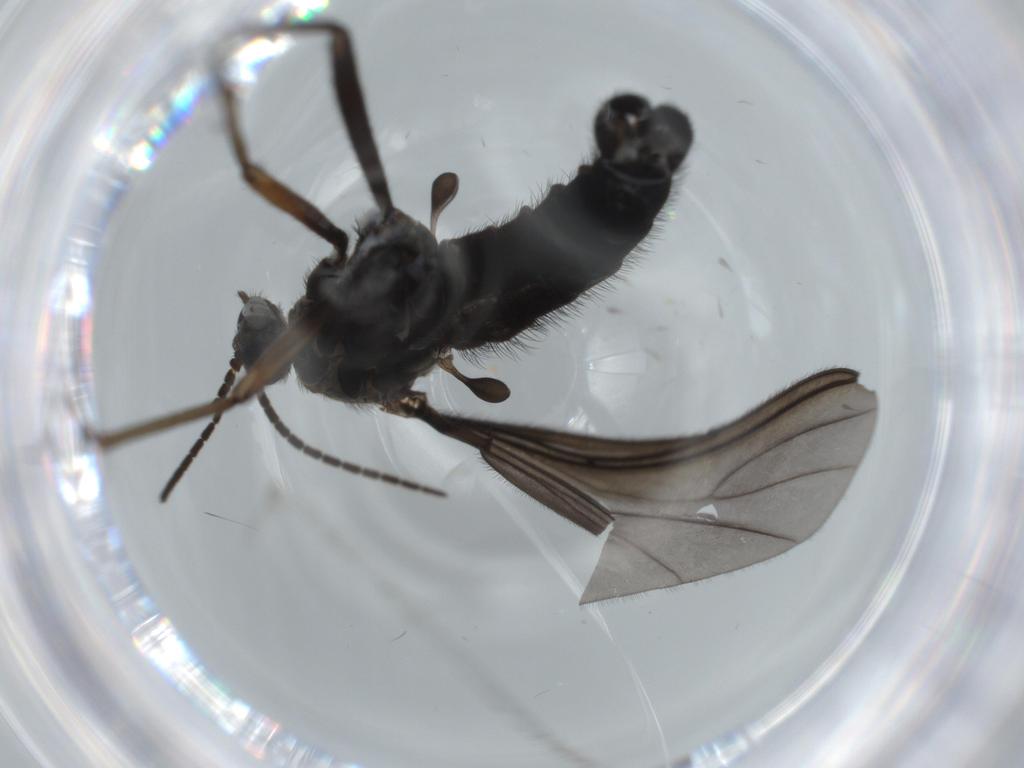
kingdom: Animalia
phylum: Arthropoda
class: Insecta
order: Diptera
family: Sciaridae
